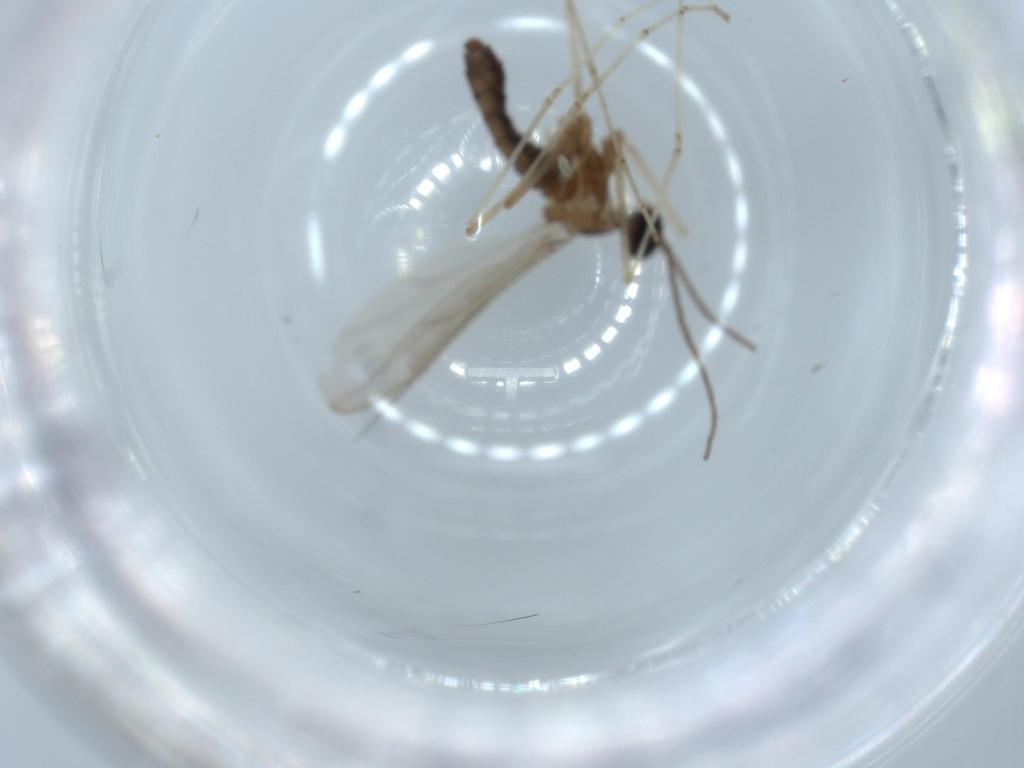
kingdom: Animalia
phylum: Arthropoda
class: Insecta
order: Diptera
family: Cecidomyiidae
